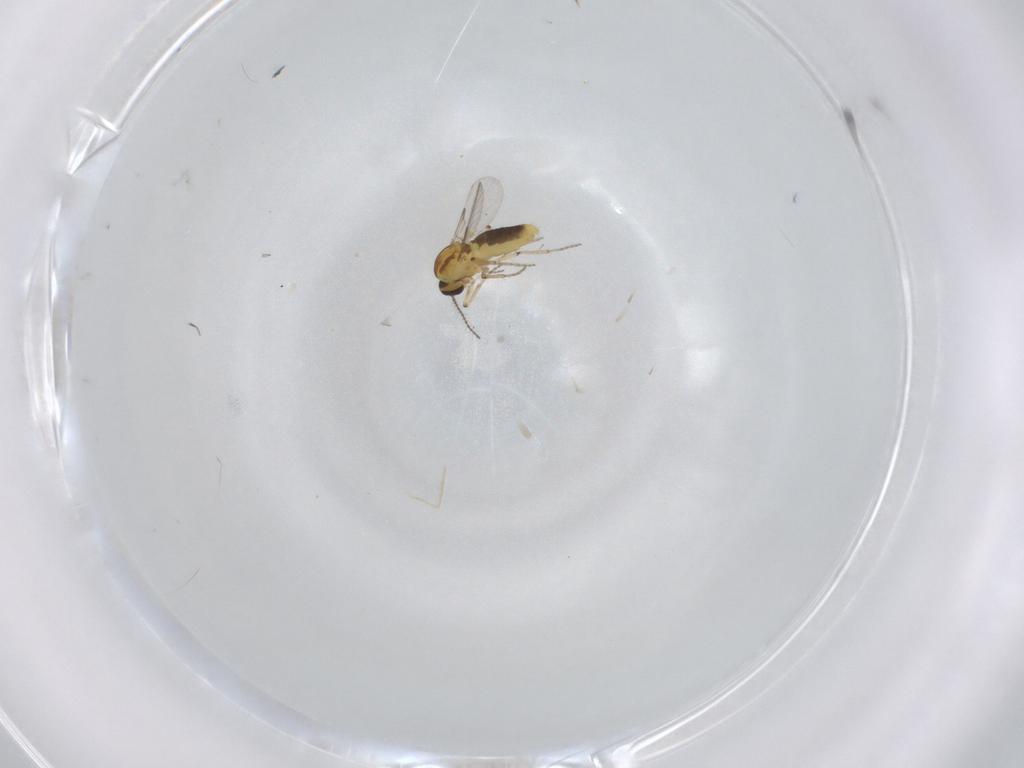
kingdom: Animalia
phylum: Arthropoda
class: Insecta
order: Diptera
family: Ceratopogonidae
